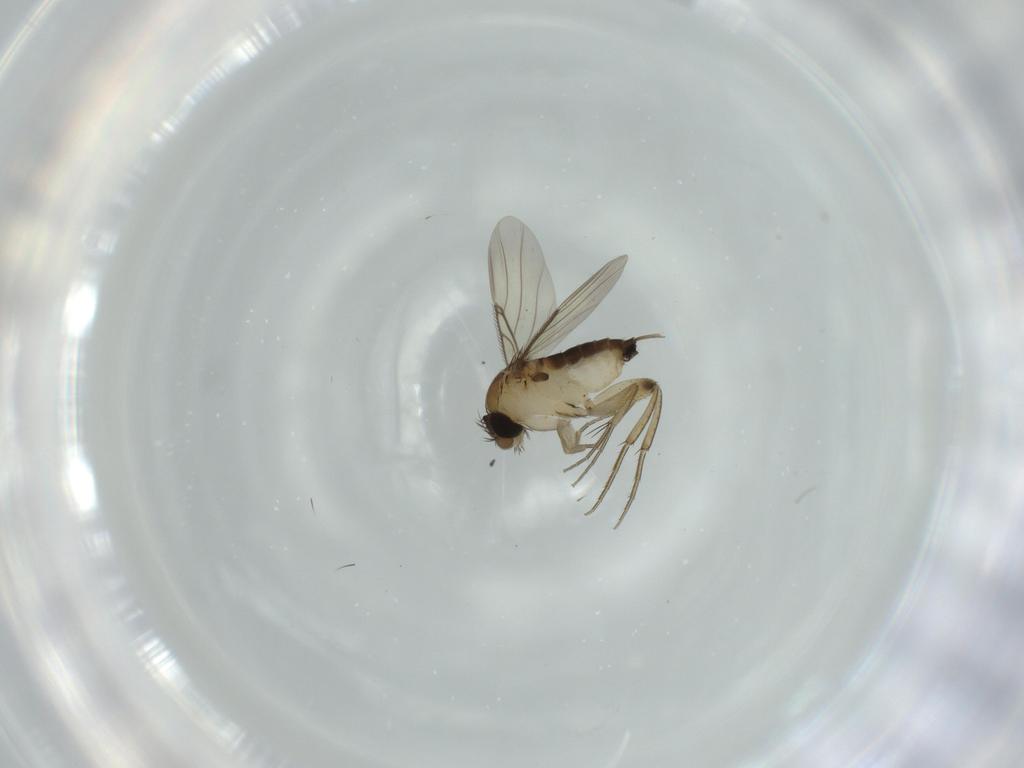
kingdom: Animalia
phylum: Arthropoda
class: Insecta
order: Diptera
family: Phoridae
